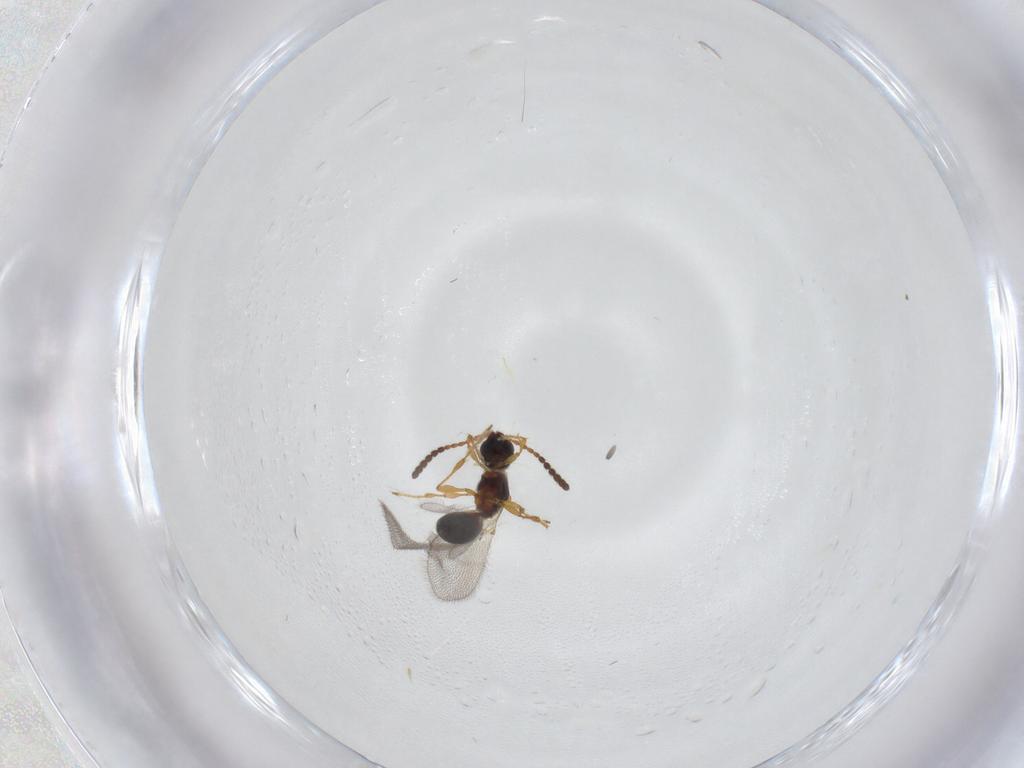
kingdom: Animalia
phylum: Arthropoda
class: Insecta
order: Hymenoptera
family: Diapriidae
